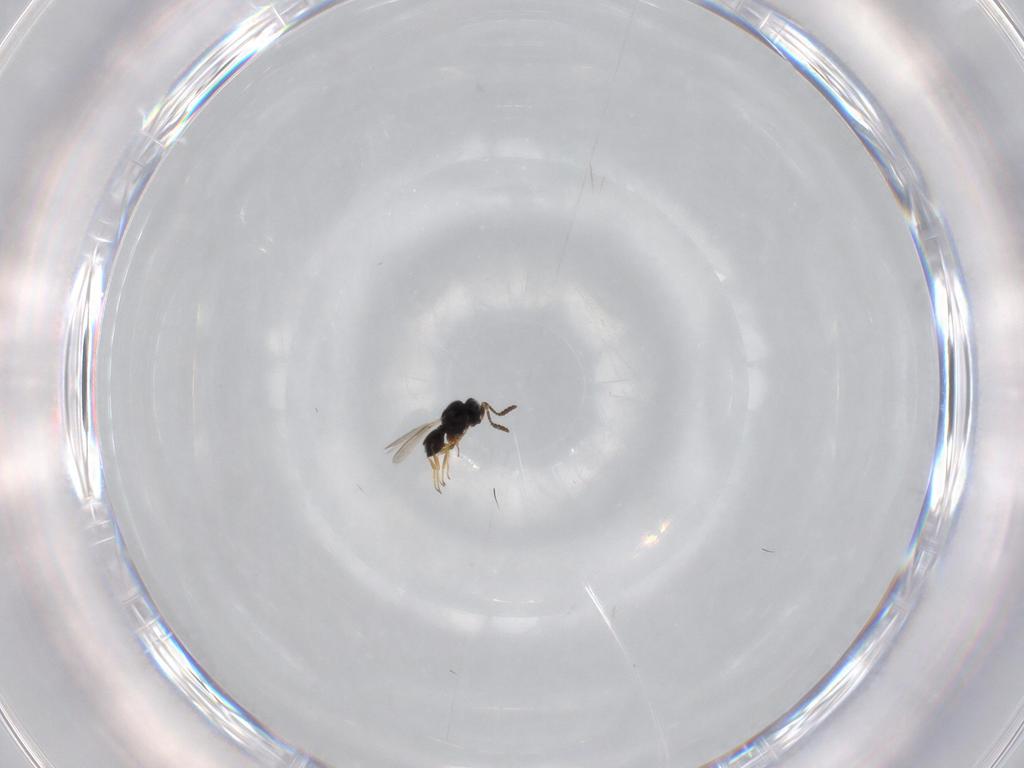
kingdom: Animalia
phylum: Arthropoda
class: Insecta
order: Hymenoptera
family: Scelionidae
